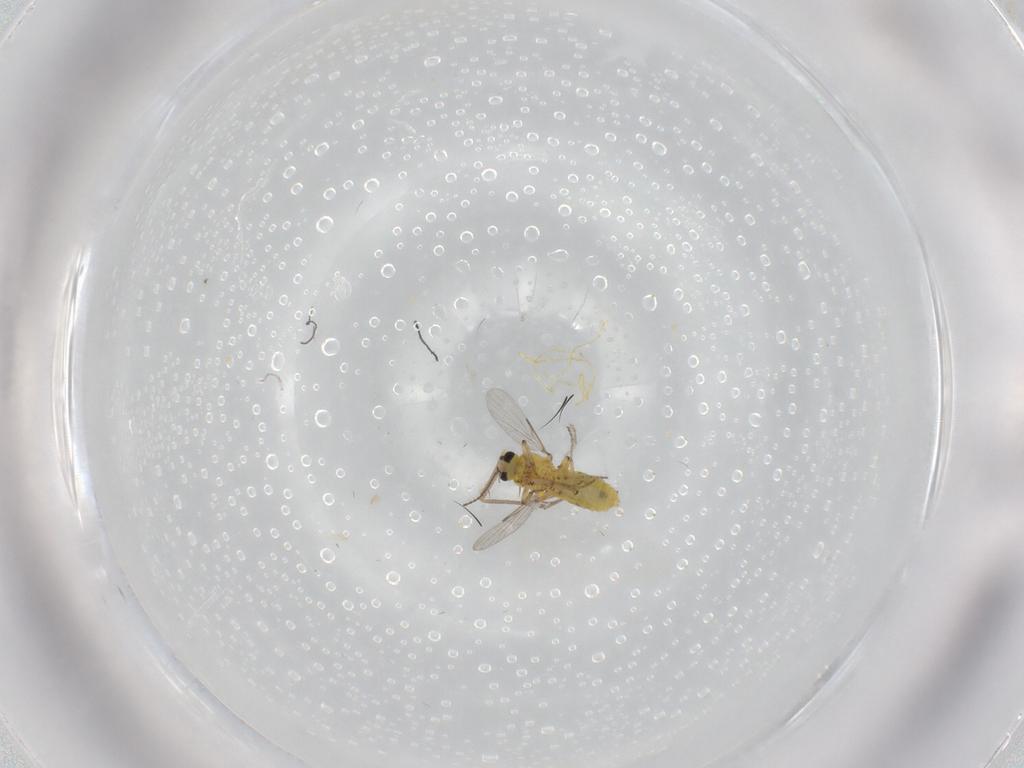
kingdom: Animalia
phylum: Arthropoda
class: Insecta
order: Diptera
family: Ceratopogonidae
